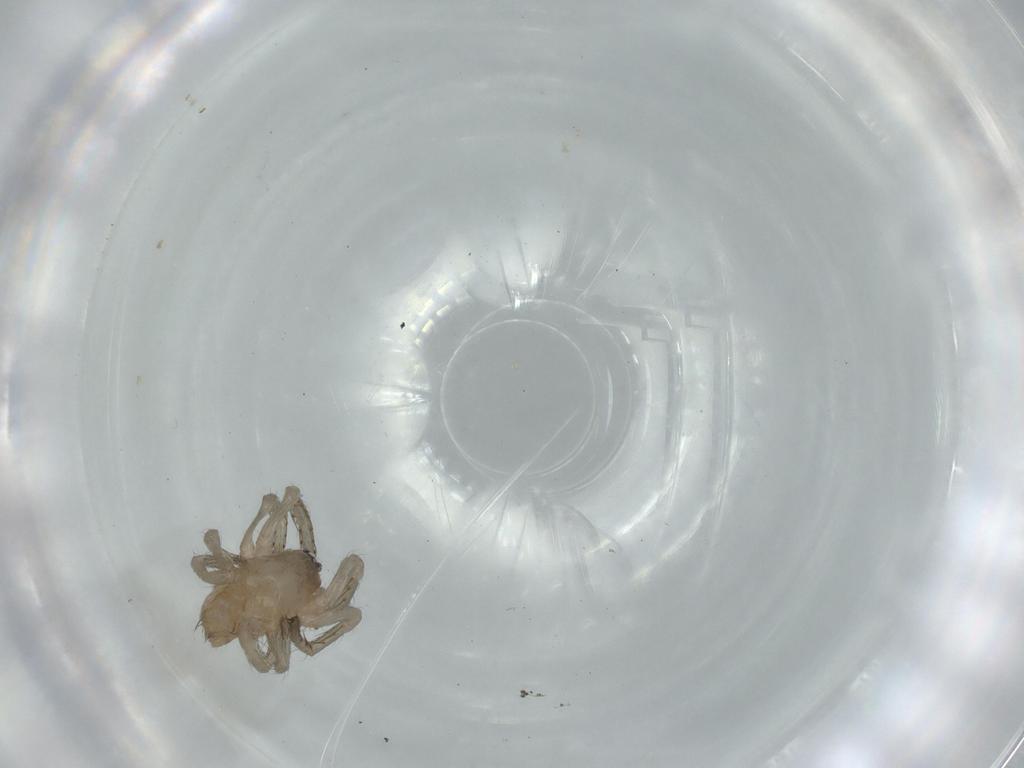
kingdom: Animalia
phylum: Arthropoda
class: Arachnida
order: Araneae
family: Segestriidae
